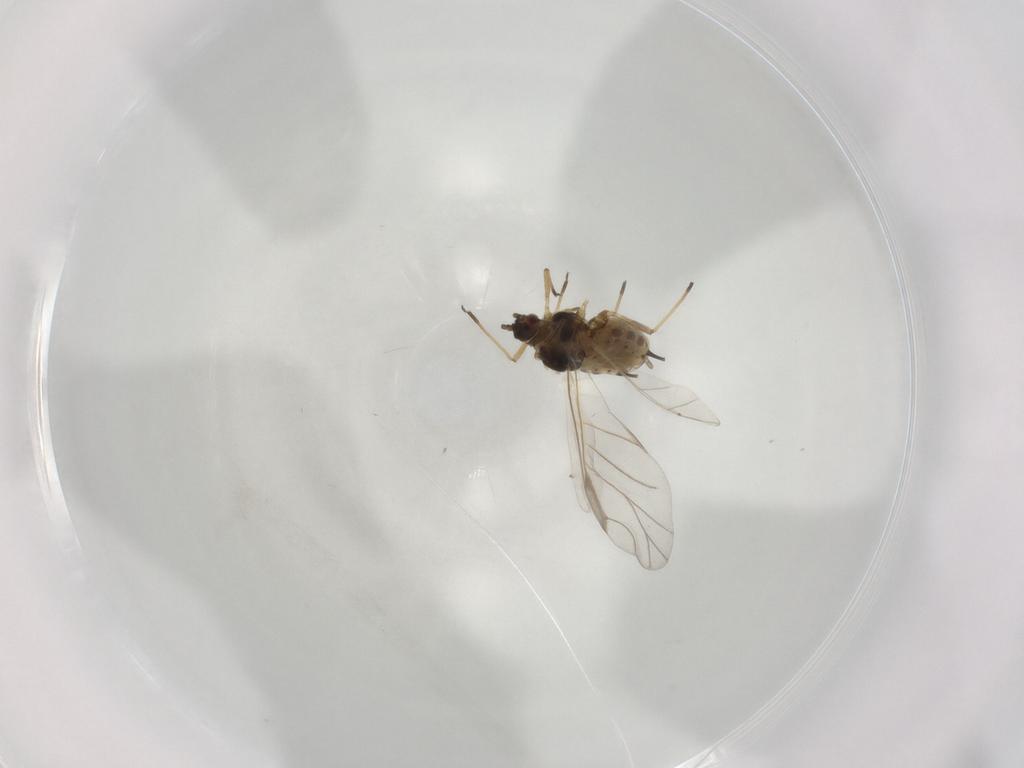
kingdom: Animalia
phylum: Arthropoda
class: Insecta
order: Hemiptera
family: Aphididae
